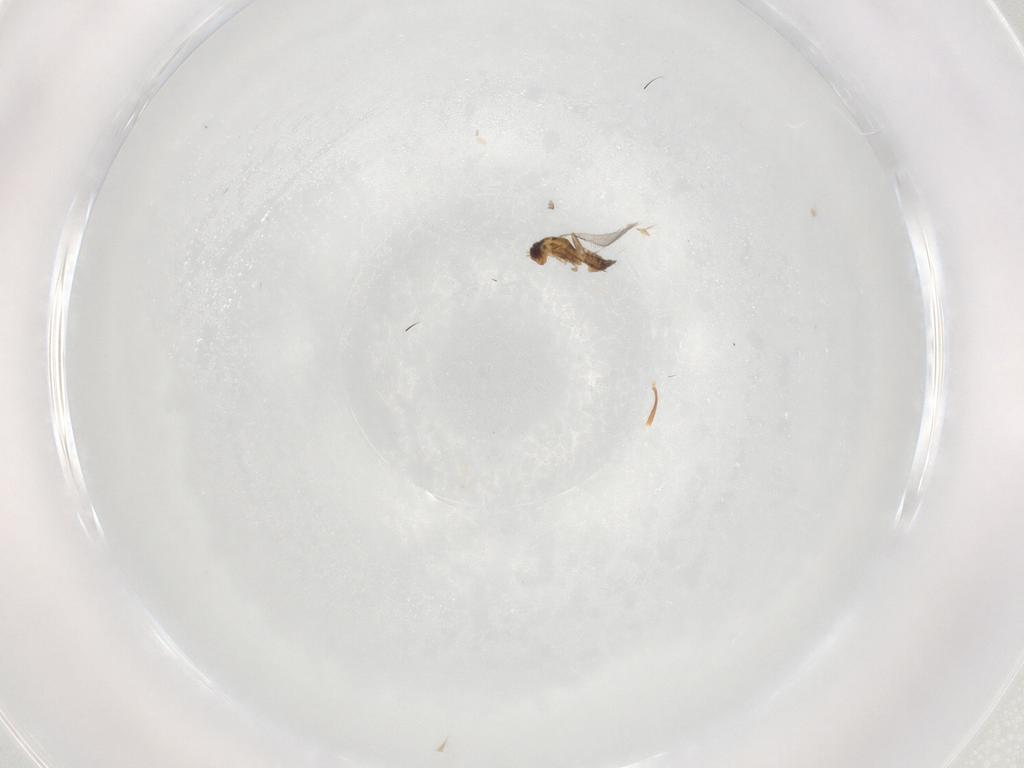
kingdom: Animalia
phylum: Arthropoda
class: Insecta
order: Hymenoptera
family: Mymaridae
